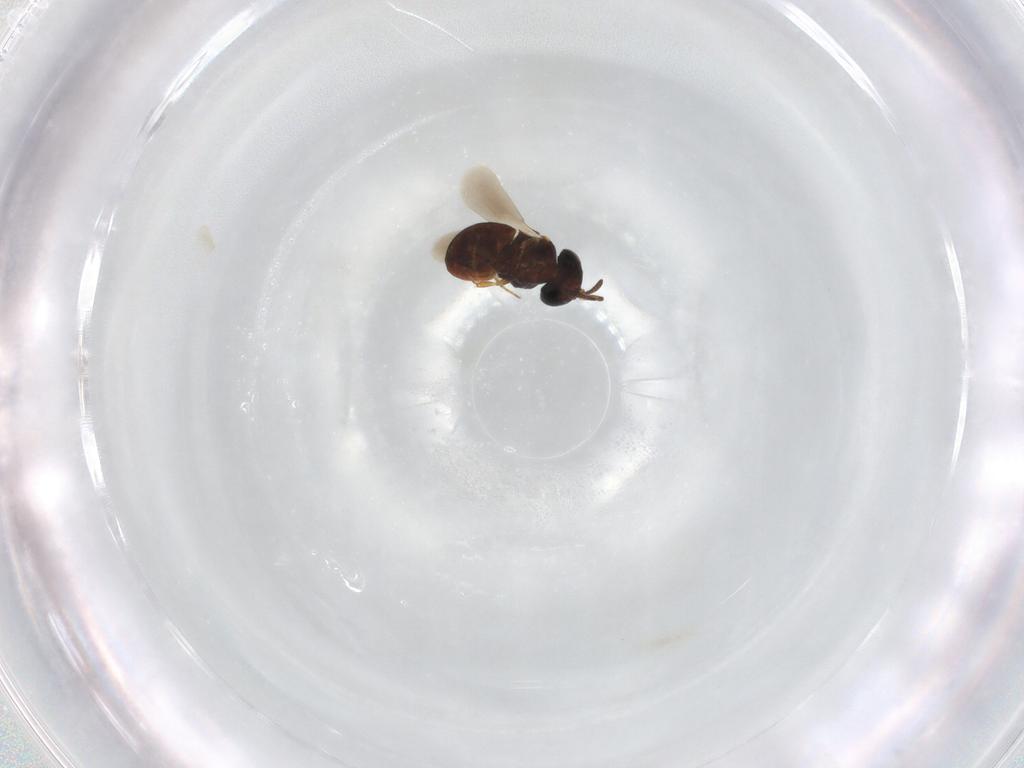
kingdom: Animalia
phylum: Arthropoda
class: Insecta
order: Hymenoptera
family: Scelionidae
